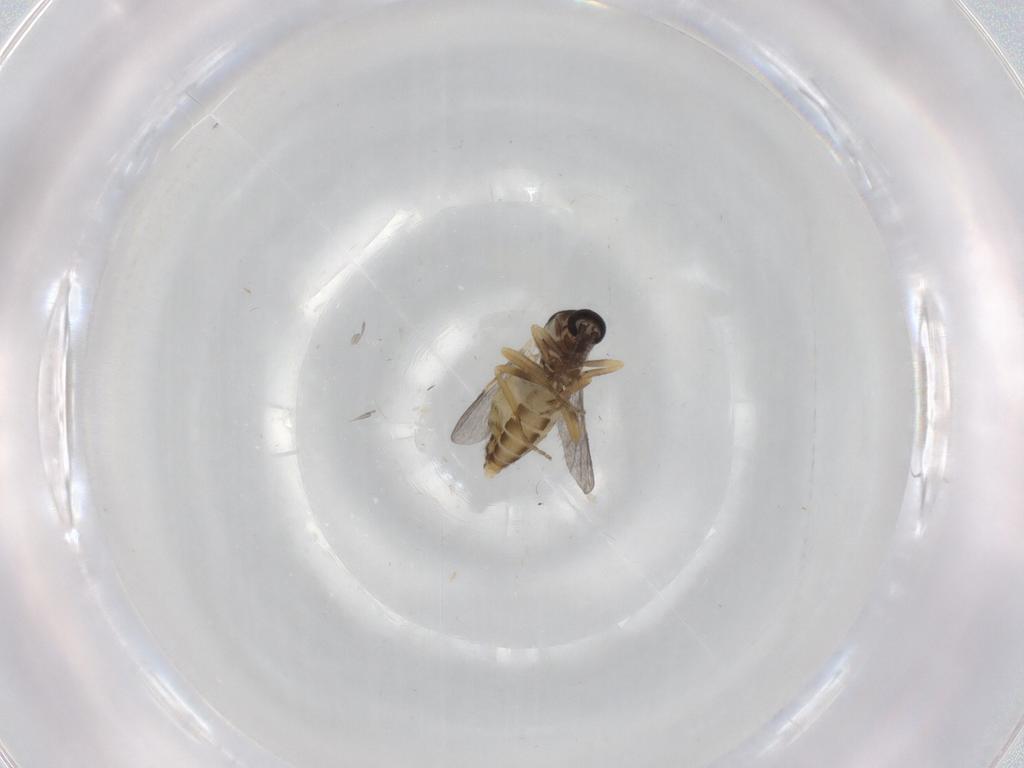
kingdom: Animalia
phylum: Arthropoda
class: Insecta
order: Diptera
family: Ceratopogonidae
